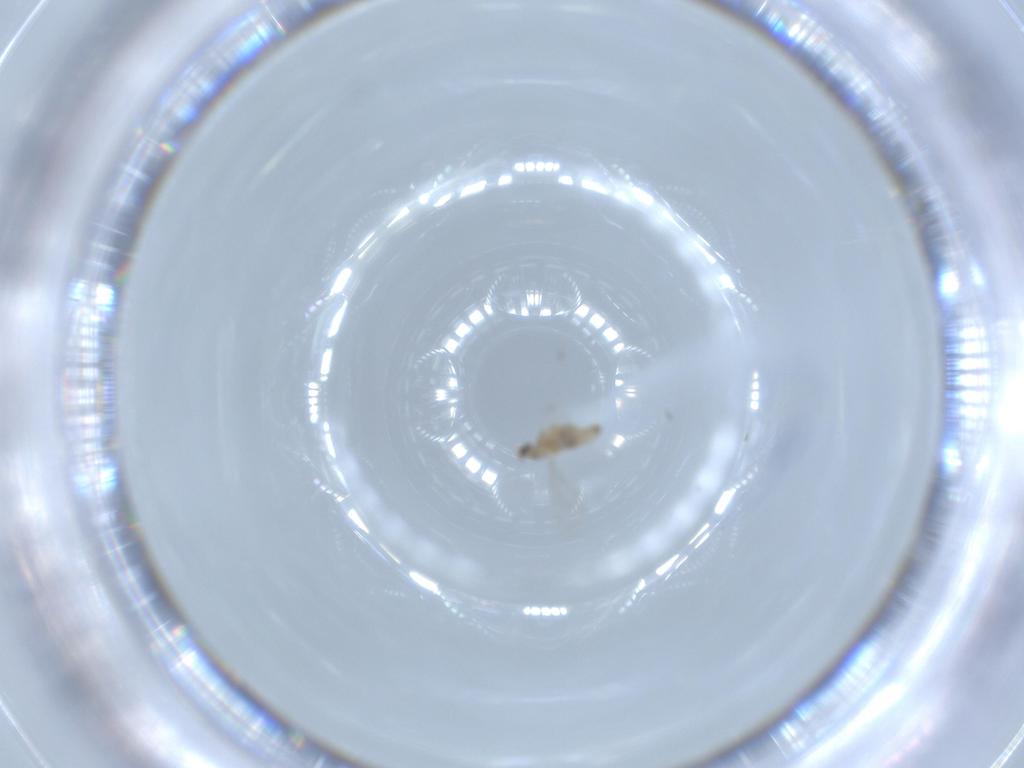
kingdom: Animalia
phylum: Arthropoda
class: Insecta
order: Diptera
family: Cecidomyiidae
